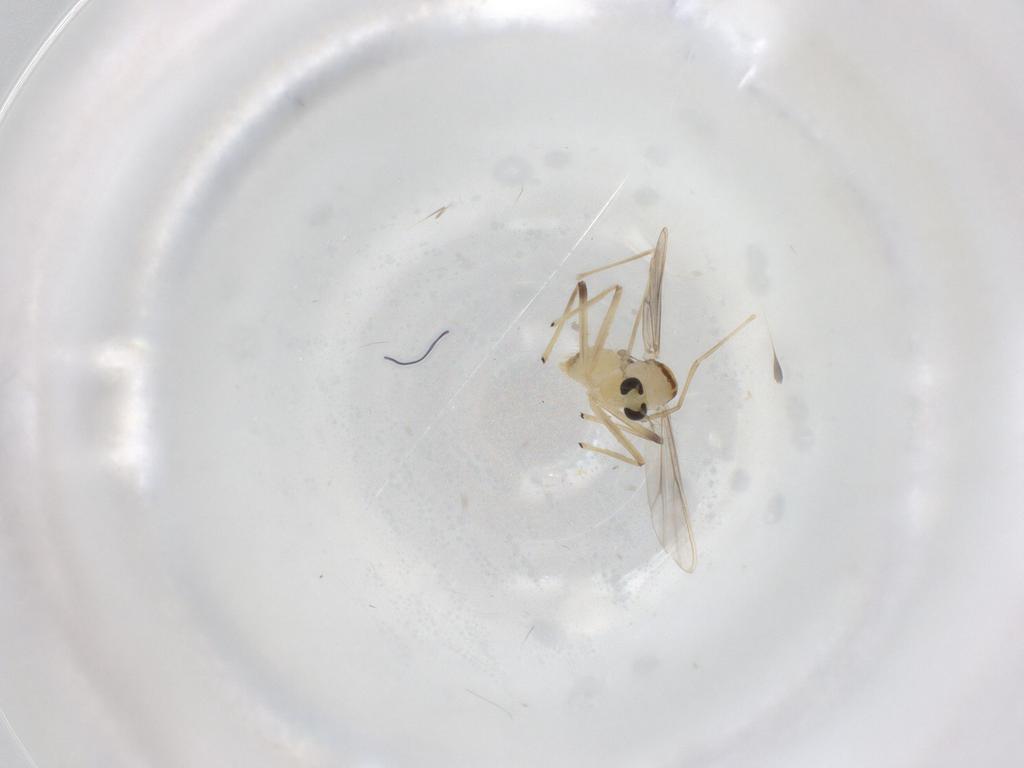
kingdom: Animalia
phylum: Arthropoda
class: Insecta
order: Diptera
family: Chironomidae
